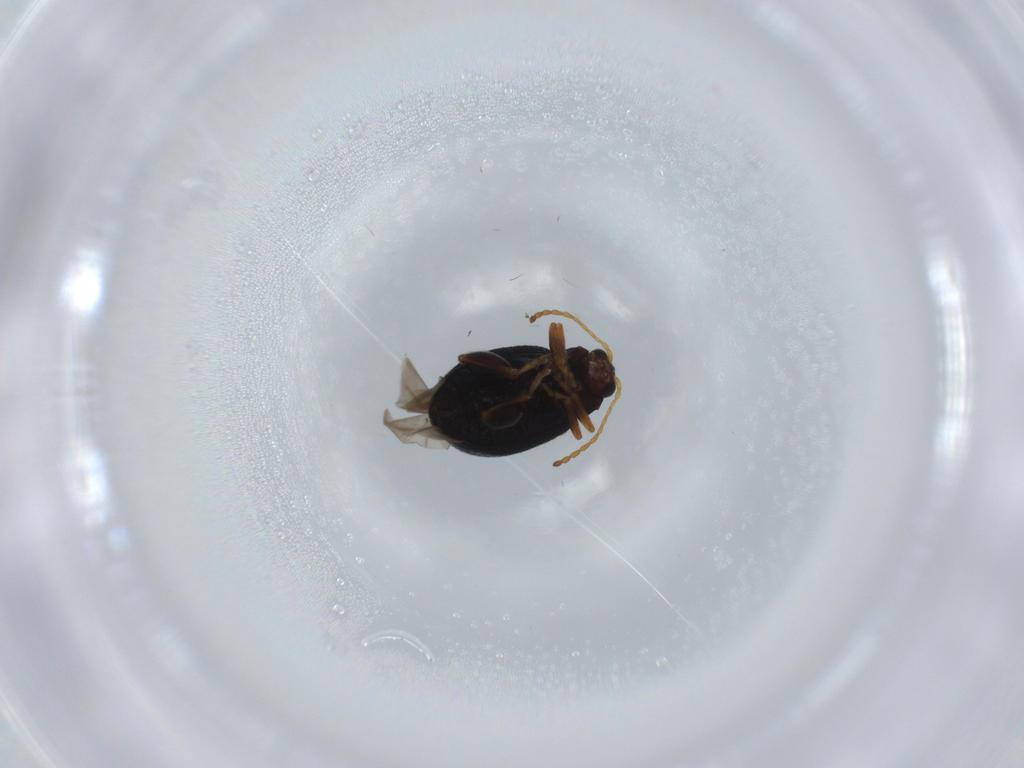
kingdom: Animalia
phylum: Arthropoda
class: Insecta
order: Coleoptera
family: Chrysomelidae
